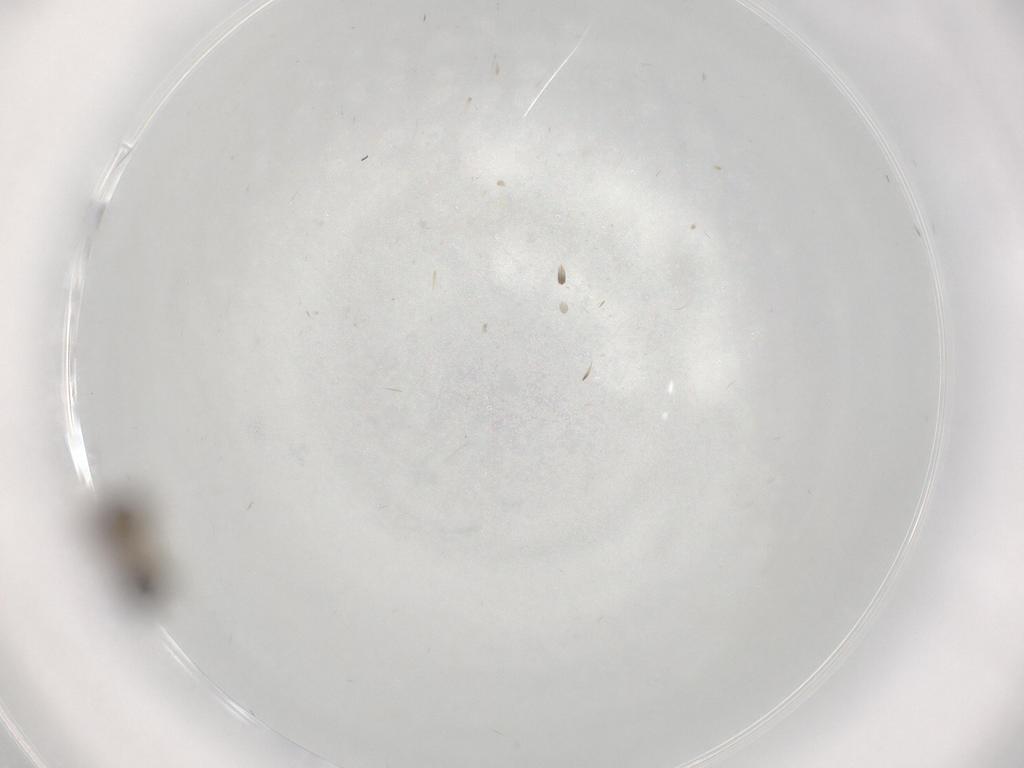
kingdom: Animalia
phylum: Arthropoda
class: Insecta
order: Diptera
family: Psychodidae
